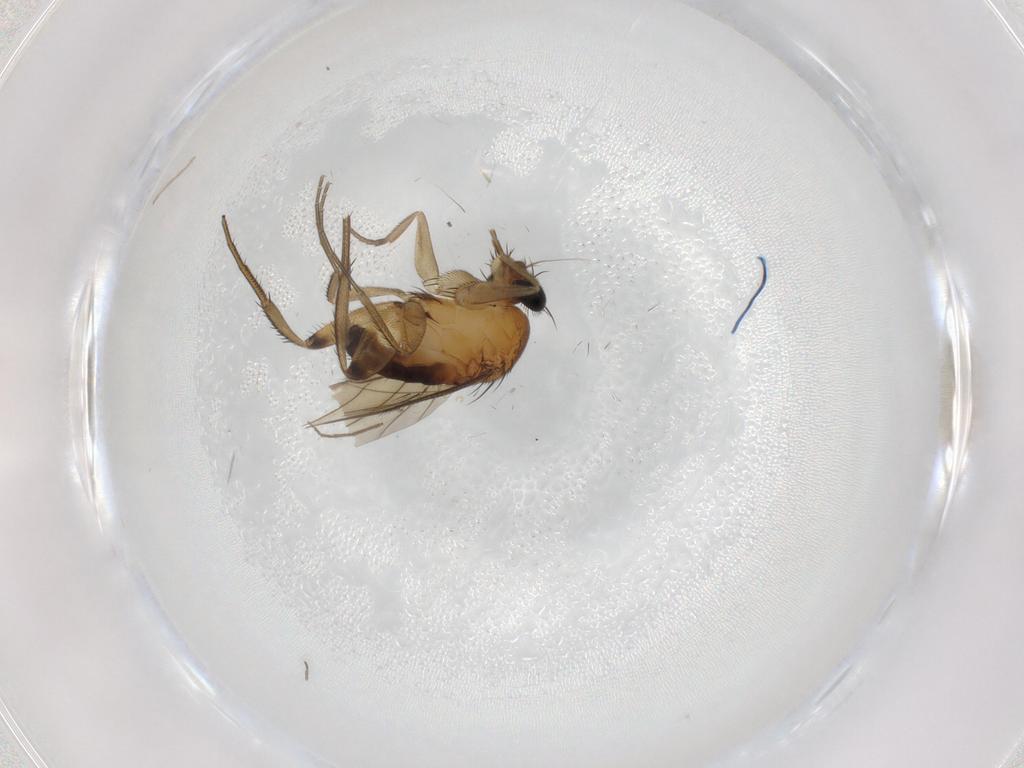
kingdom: Animalia
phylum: Arthropoda
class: Insecta
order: Diptera
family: Phoridae
